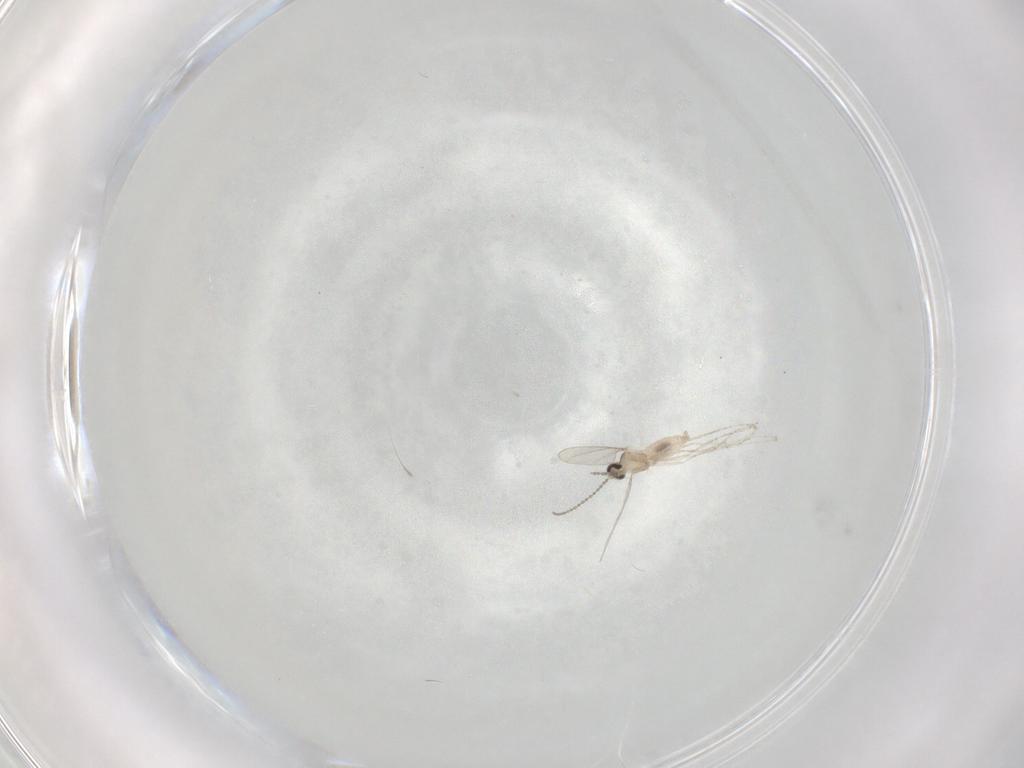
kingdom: Animalia
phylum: Arthropoda
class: Insecta
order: Diptera
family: Cecidomyiidae
